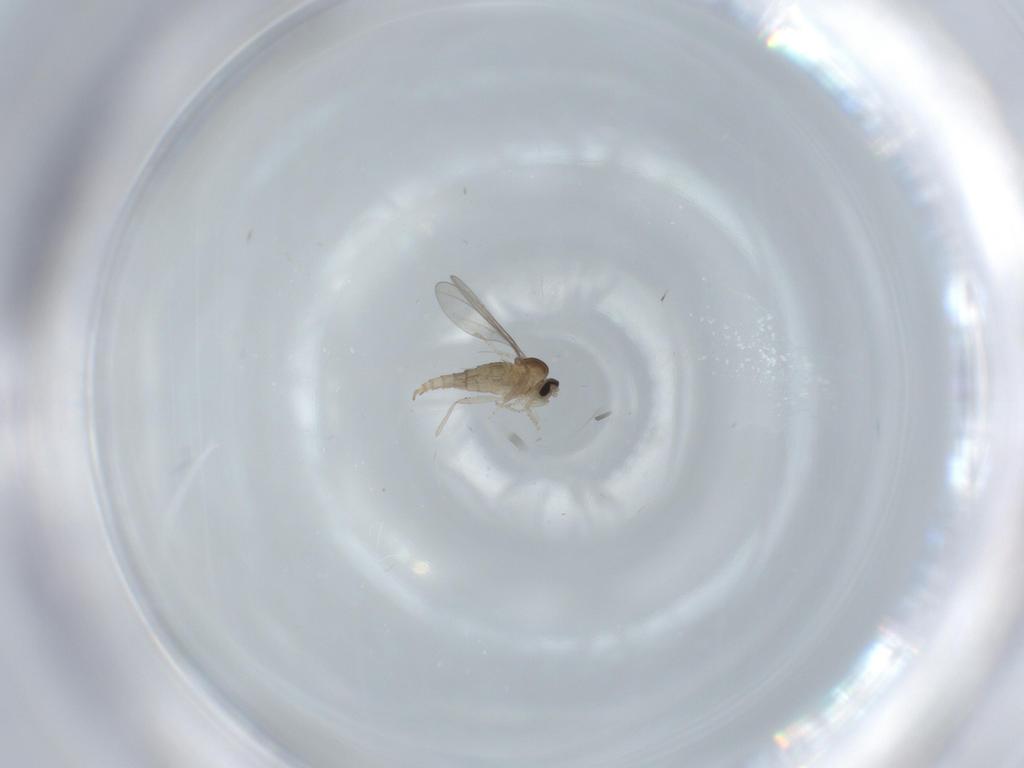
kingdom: Animalia
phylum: Arthropoda
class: Insecta
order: Diptera
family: Cecidomyiidae
